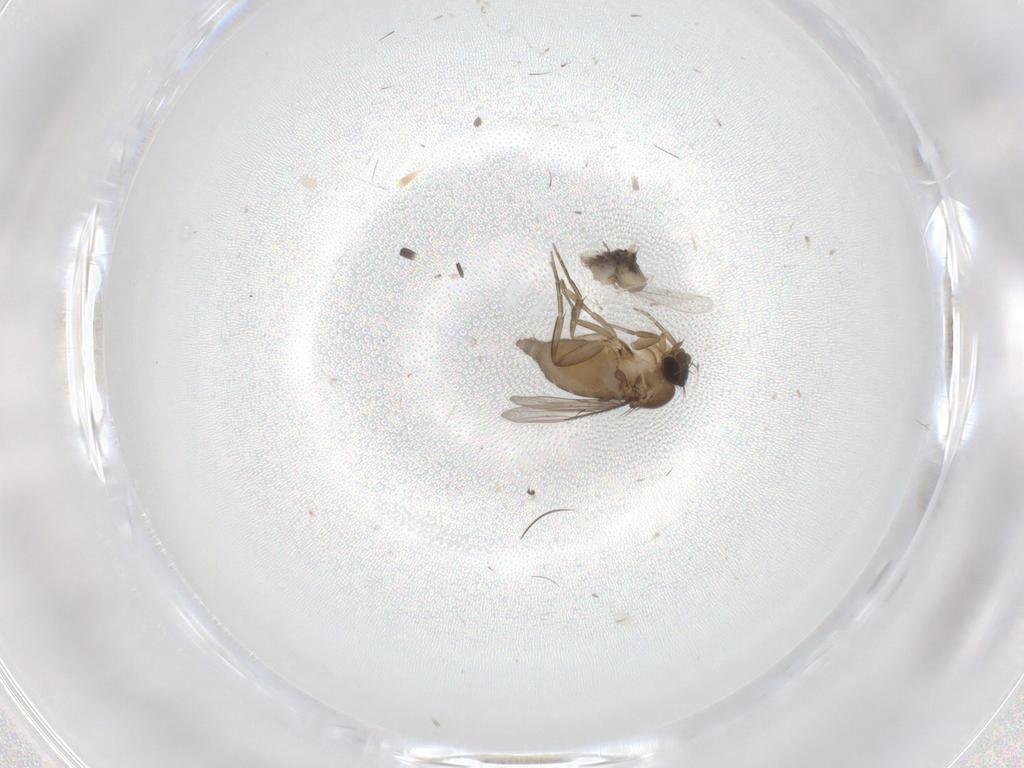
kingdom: Animalia
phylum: Arthropoda
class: Insecta
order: Diptera
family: Phoridae
